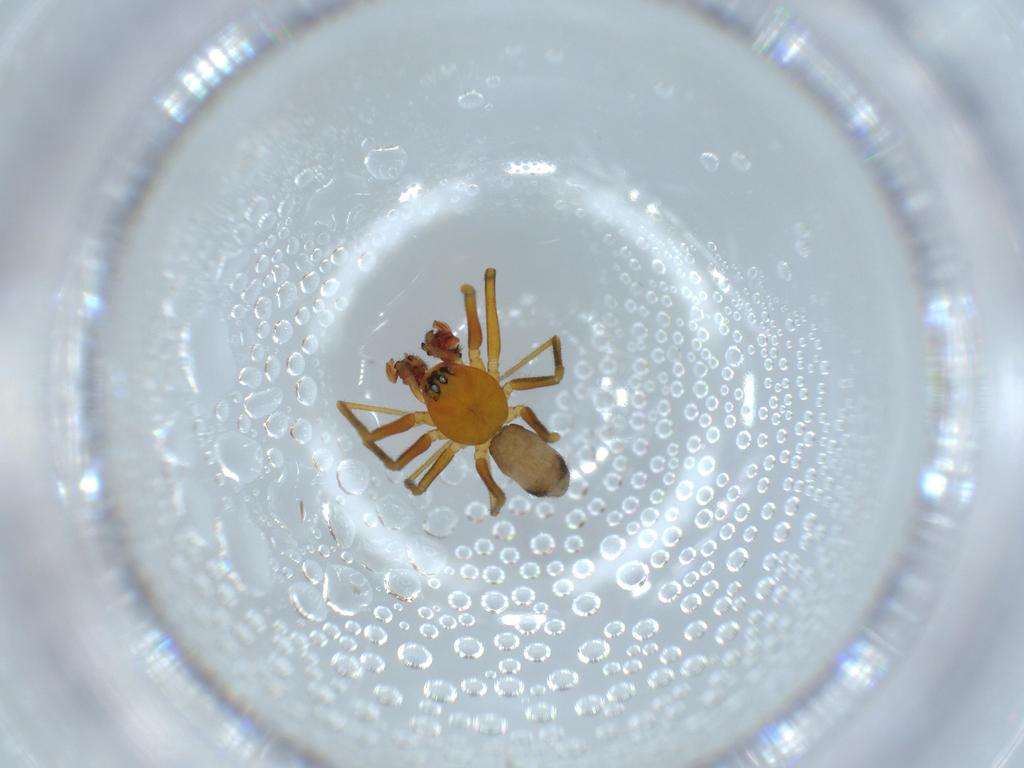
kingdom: Animalia
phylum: Arthropoda
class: Arachnida
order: Araneae
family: Linyphiidae
